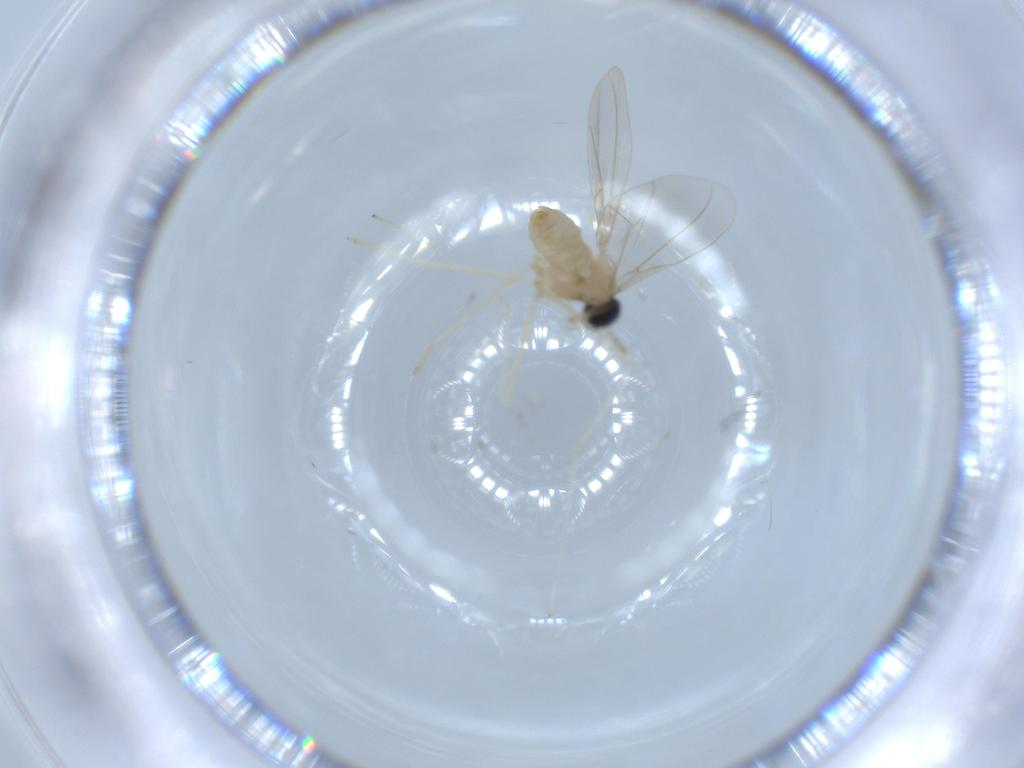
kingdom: Animalia
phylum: Arthropoda
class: Insecta
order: Diptera
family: Cecidomyiidae
